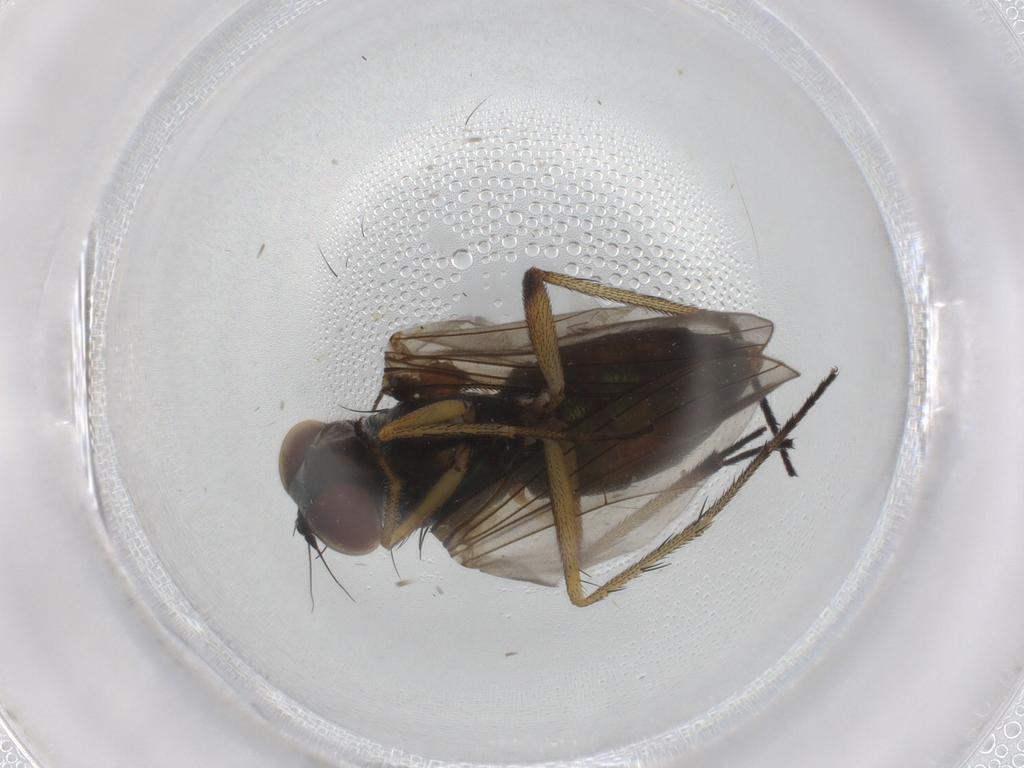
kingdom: Animalia
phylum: Arthropoda
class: Insecta
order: Diptera
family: Dolichopodidae
